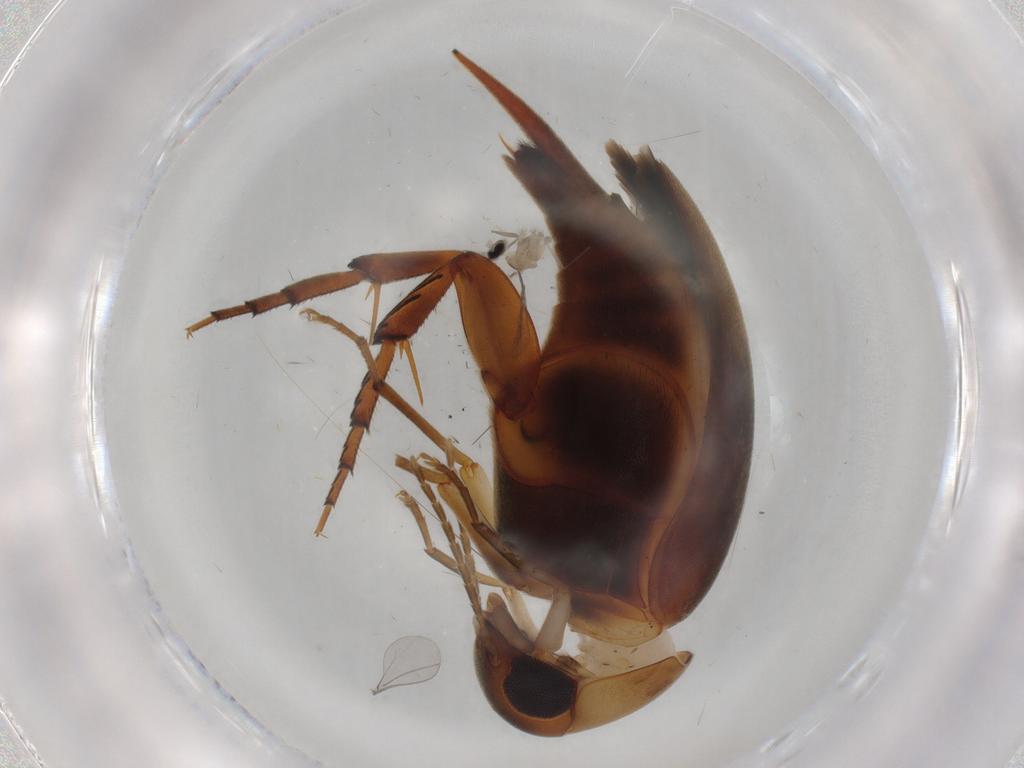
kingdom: Animalia
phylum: Arthropoda
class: Insecta
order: Coleoptera
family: Mordellidae
